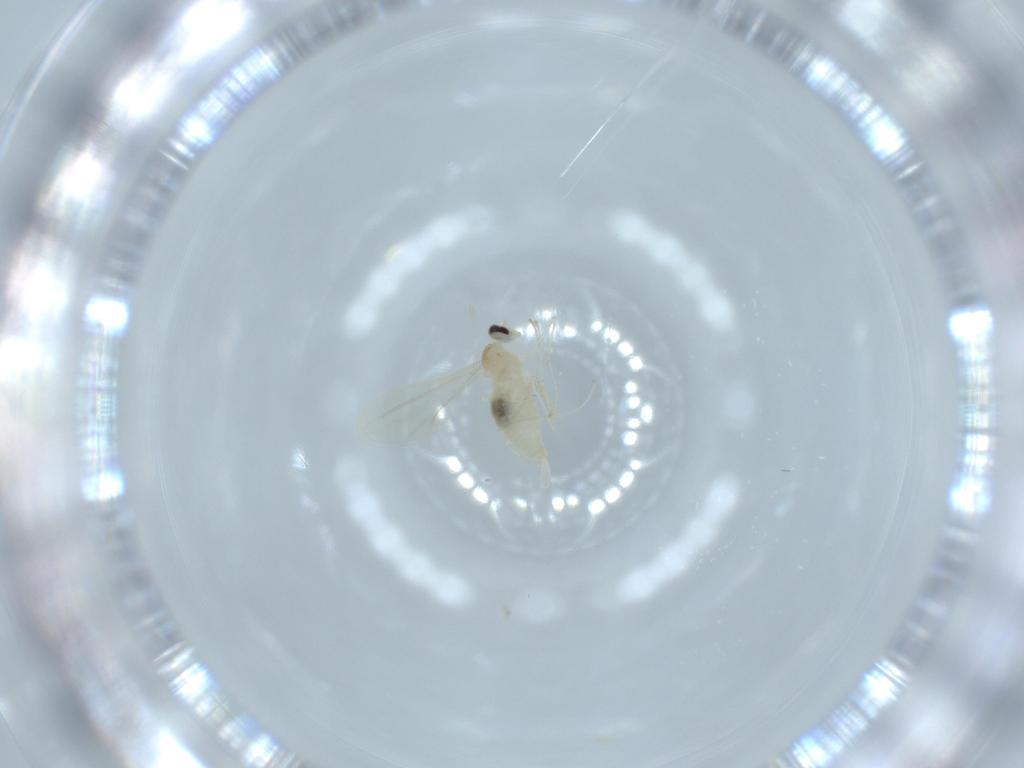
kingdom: Animalia
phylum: Arthropoda
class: Insecta
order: Diptera
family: Cecidomyiidae
